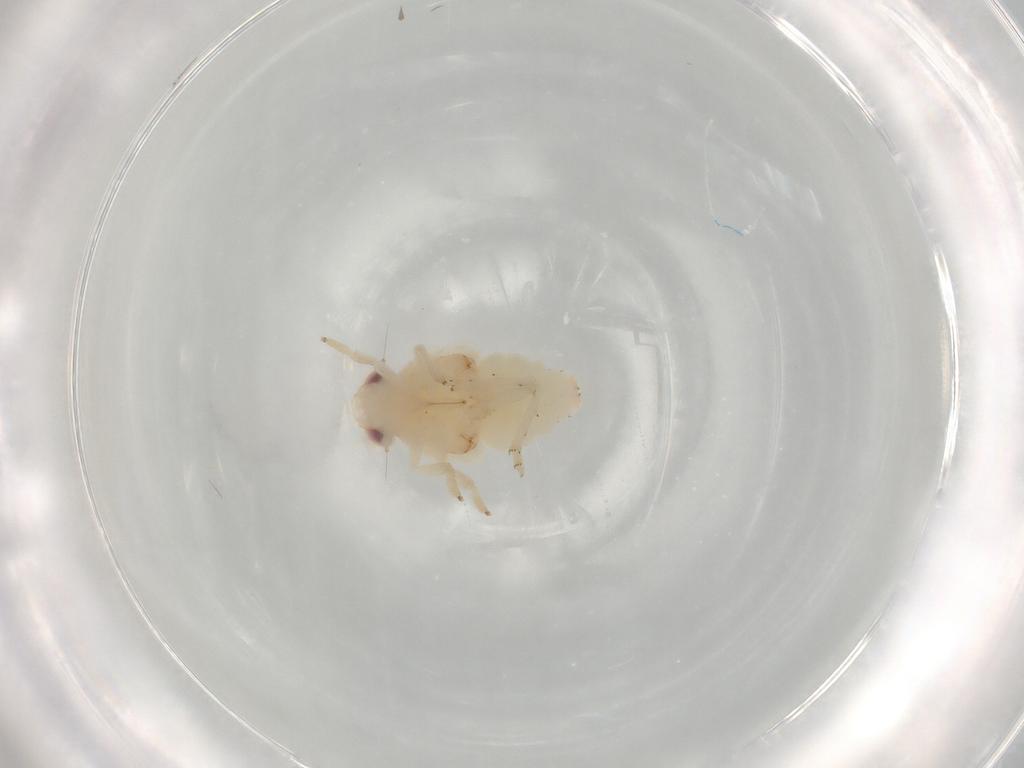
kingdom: Animalia
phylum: Arthropoda
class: Insecta
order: Hemiptera
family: Nogodinidae
